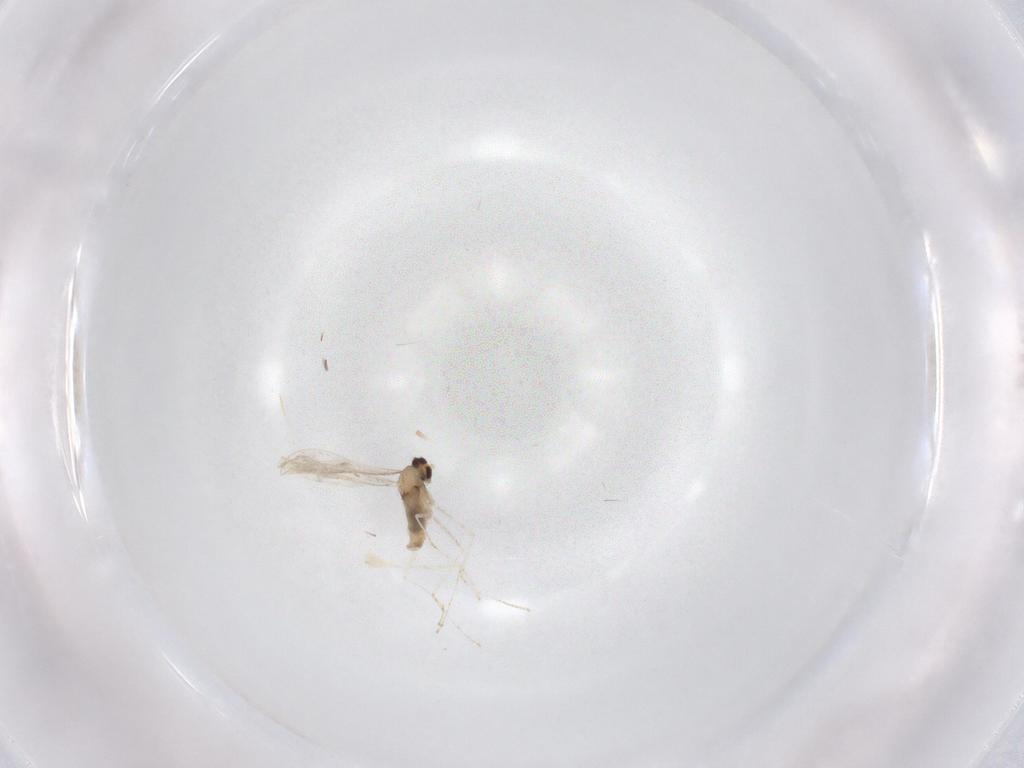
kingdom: Animalia
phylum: Arthropoda
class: Insecta
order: Diptera
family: Cecidomyiidae
